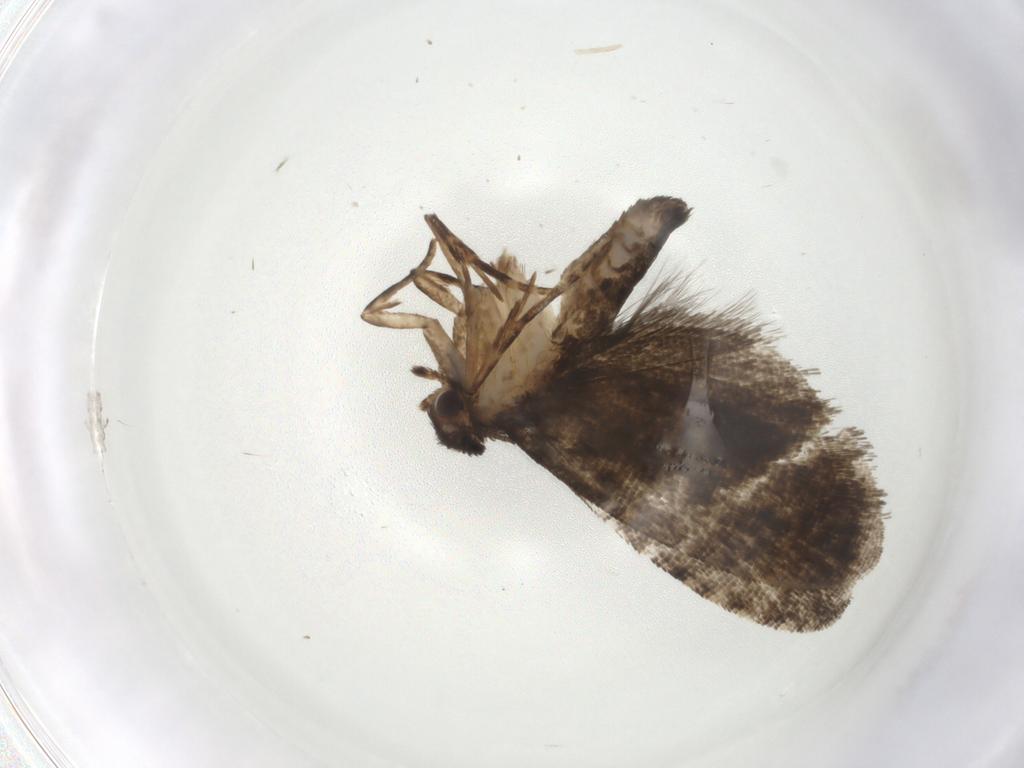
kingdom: Animalia
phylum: Arthropoda
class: Insecta
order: Lepidoptera
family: Tortricidae
